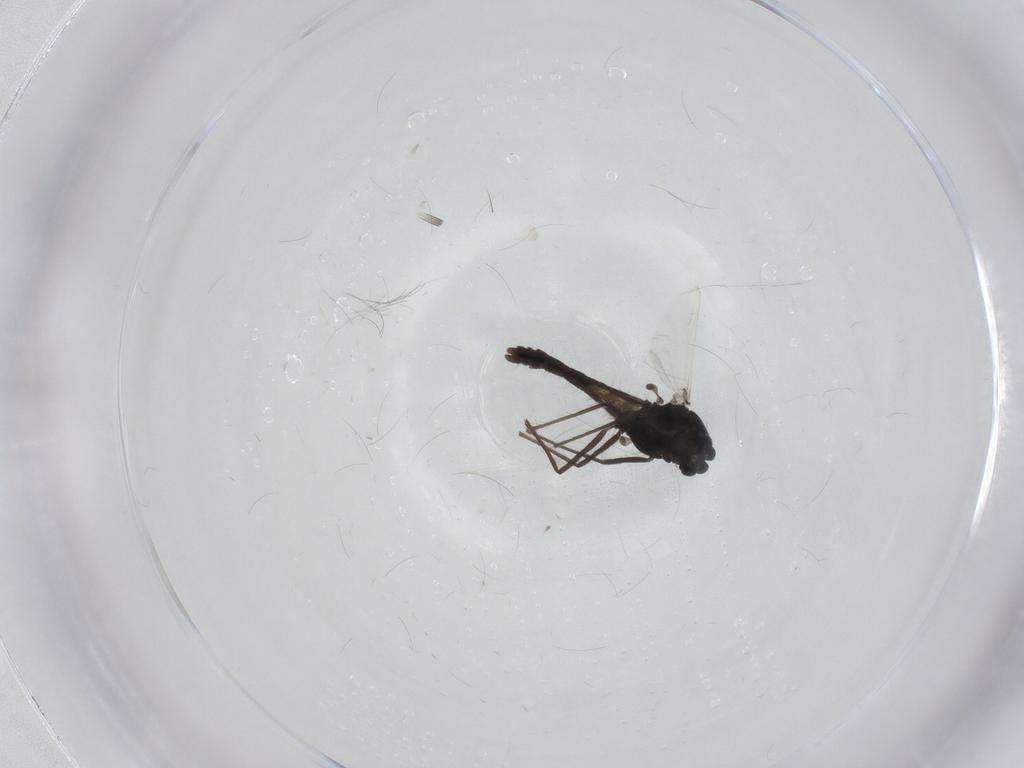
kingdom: Animalia
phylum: Arthropoda
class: Insecta
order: Diptera
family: Chironomidae
